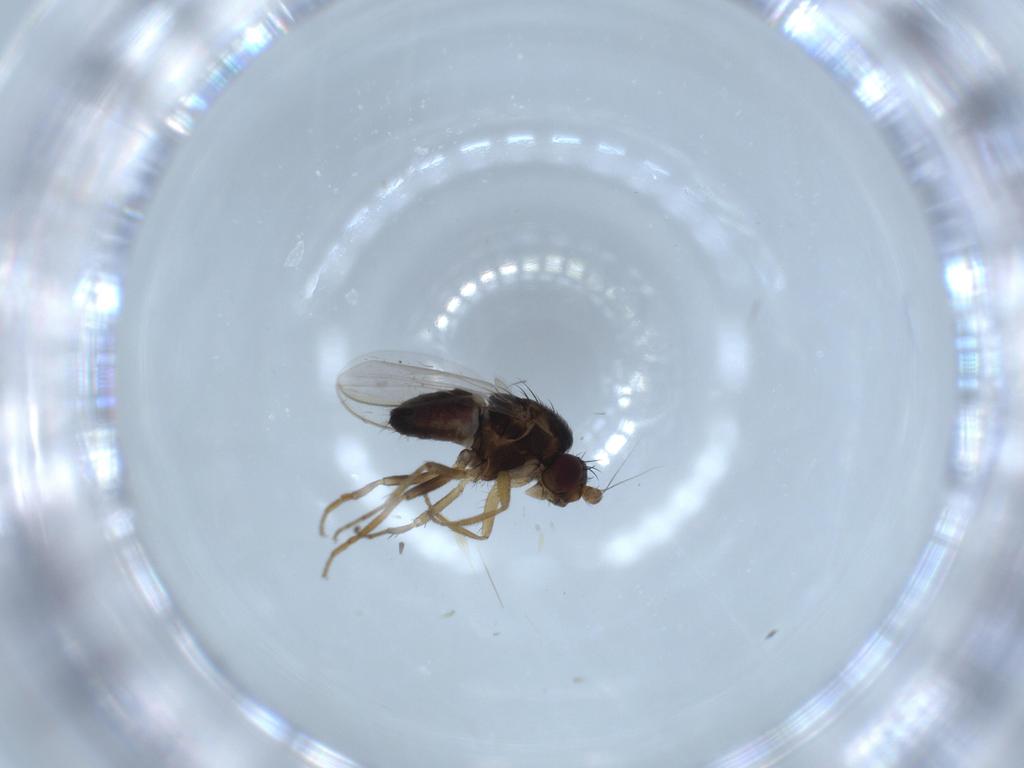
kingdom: Animalia
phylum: Arthropoda
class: Insecta
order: Diptera
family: Sphaeroceridae
